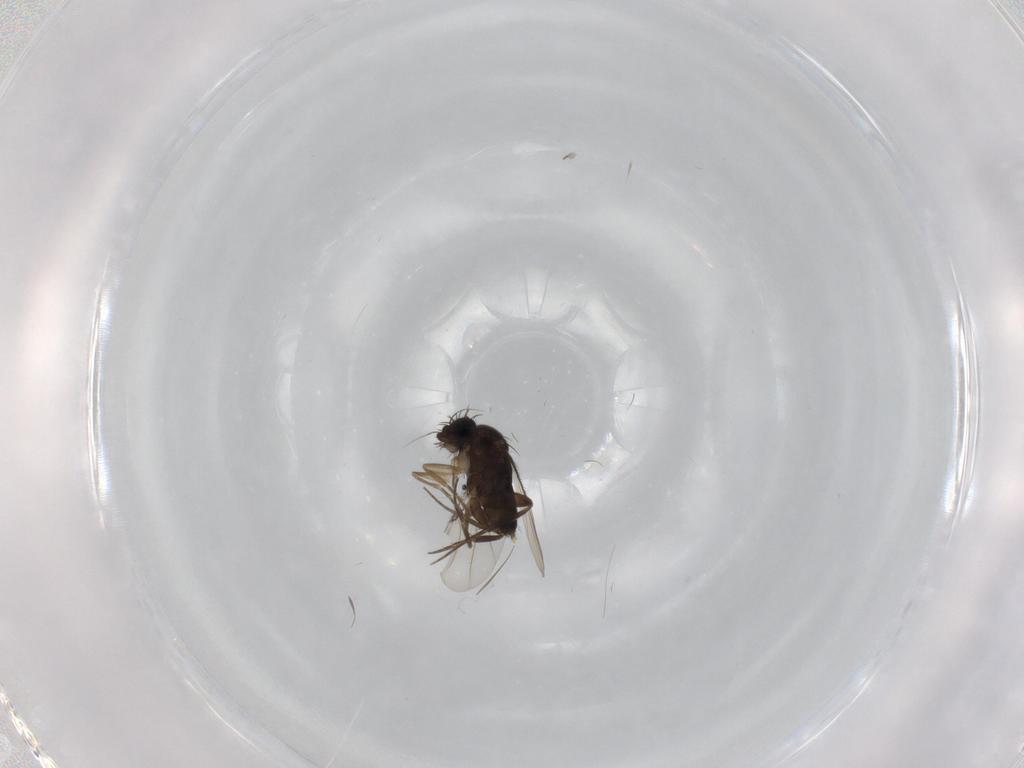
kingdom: Animalia
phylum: Arthropoda
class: Insecta
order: Diptera
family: Phoridae
